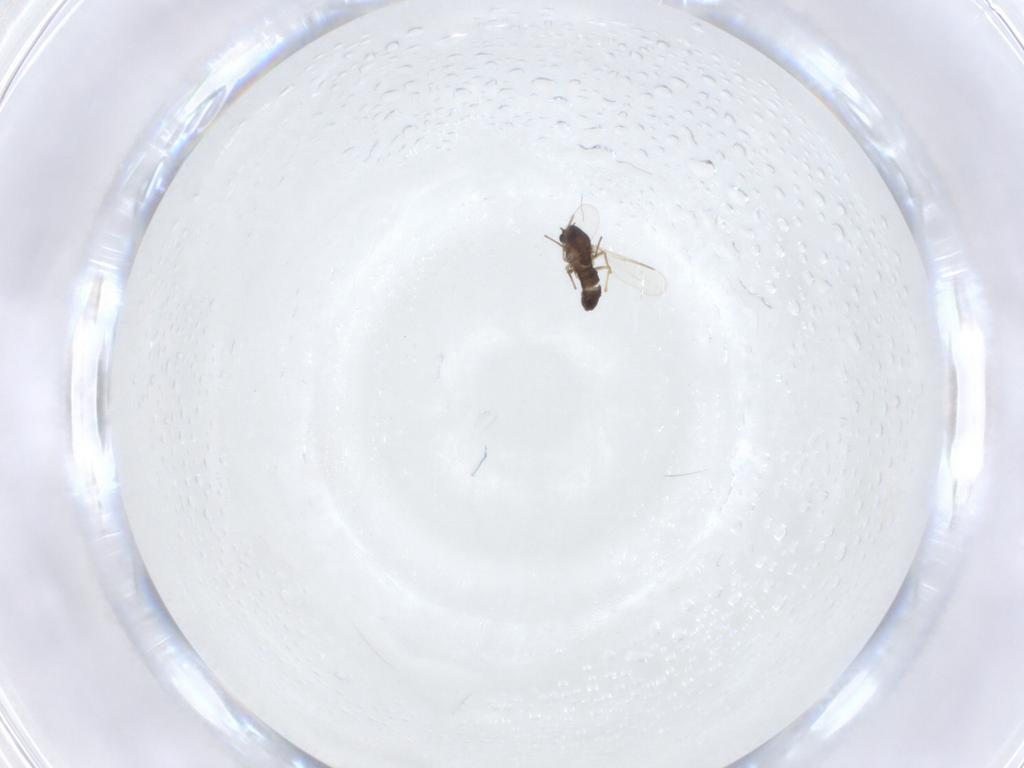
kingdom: Animalia
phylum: Arthropoda
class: Insecta
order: Diptera
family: Chironomidae
